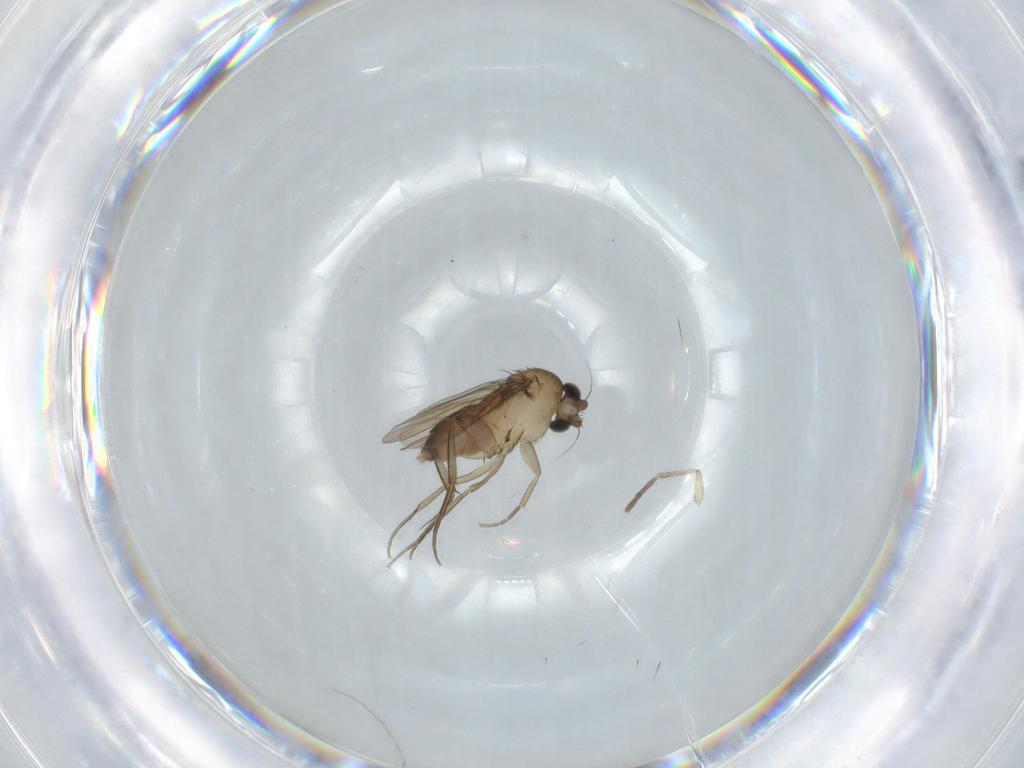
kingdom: Animalia
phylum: Arthropoda
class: Insecta
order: Diptera
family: Phoridae
